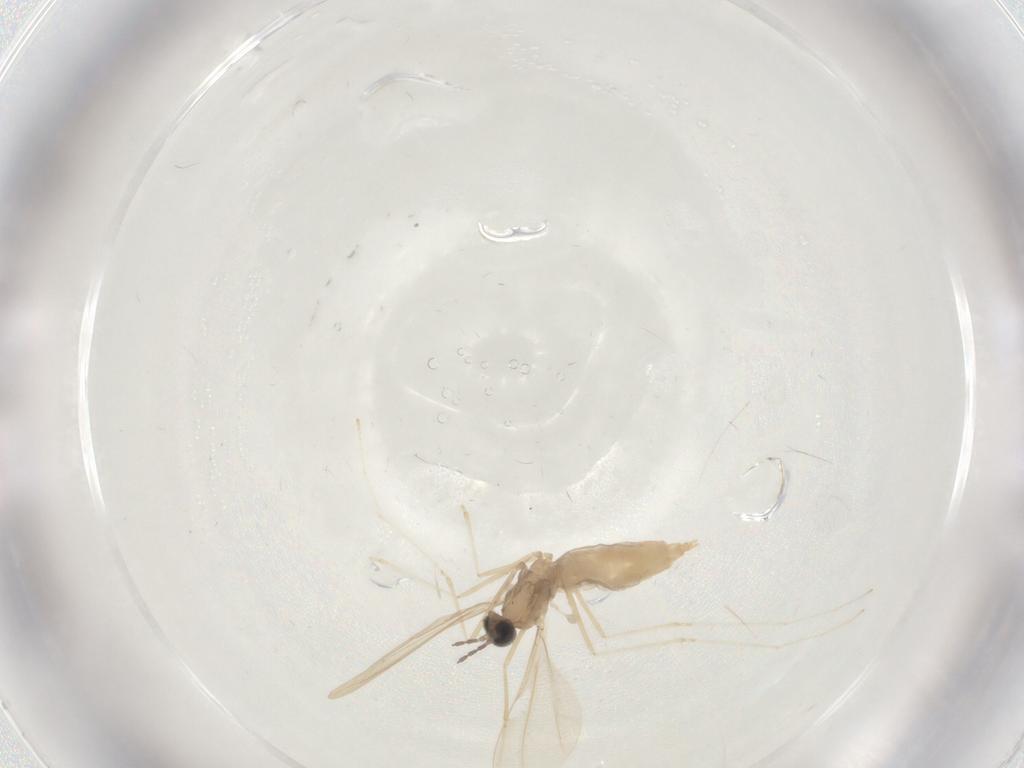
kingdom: Animalia
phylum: Arthropoda
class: Insecta
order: Diptera
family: Cecidomyiidae
